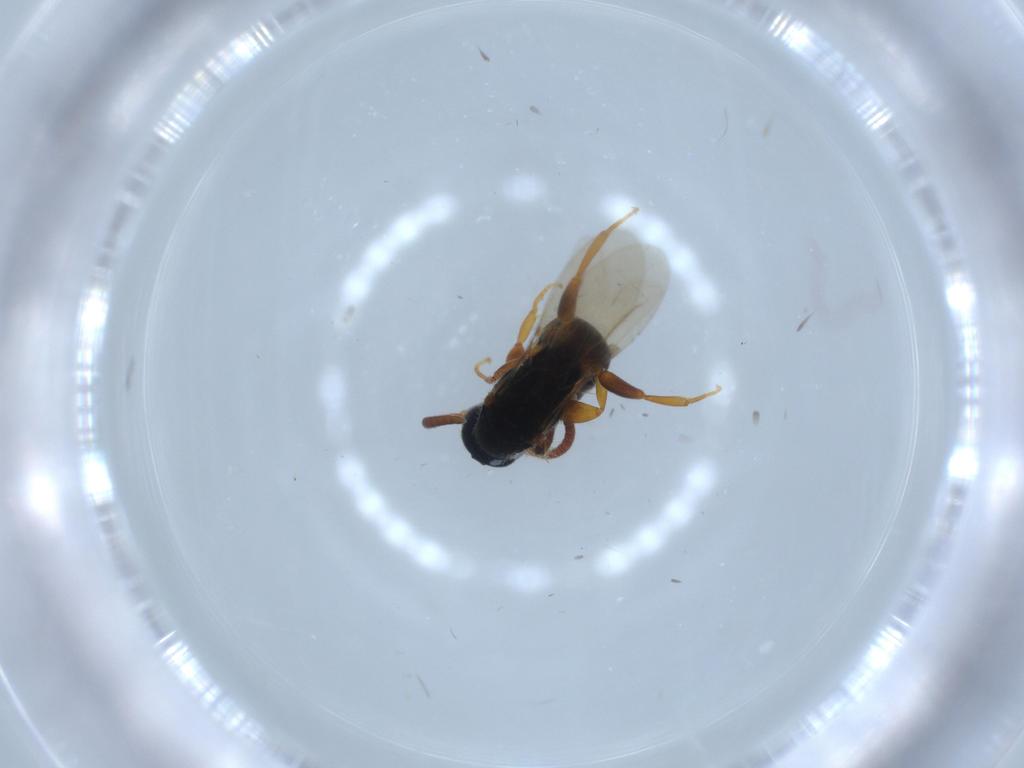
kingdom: Animalia
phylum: Arthropoda
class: Insecta
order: Hymenoptera
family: Bethylidae
